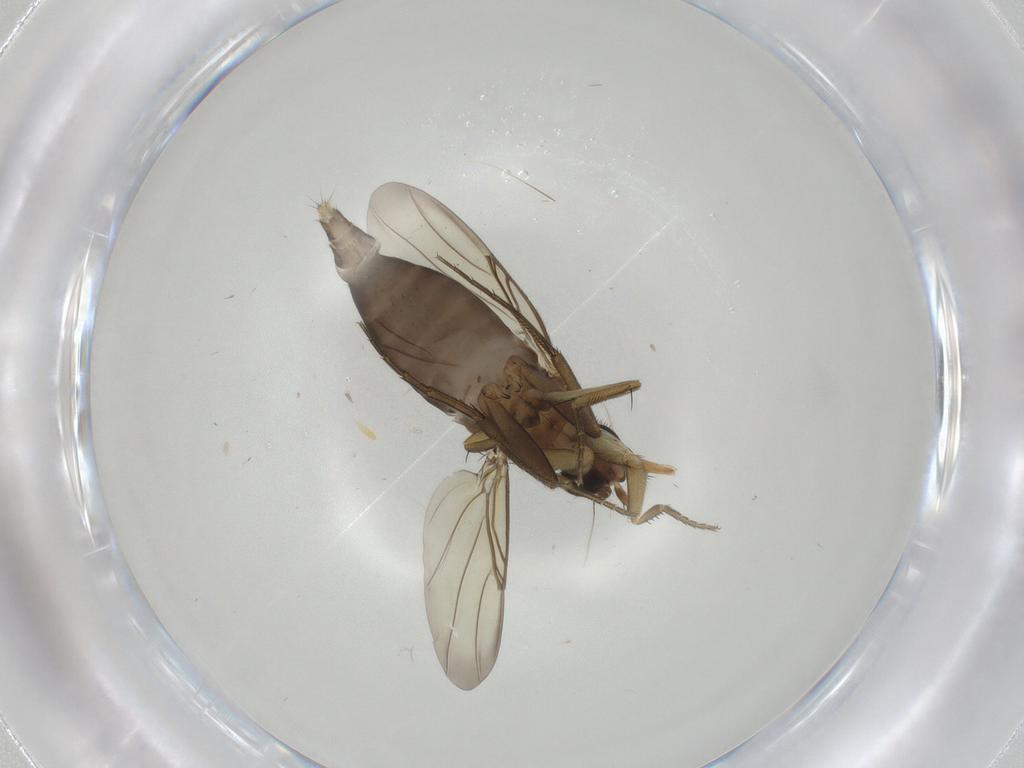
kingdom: Animalia
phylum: Arthropoda
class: Insecta
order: Diptera
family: Phoridae
